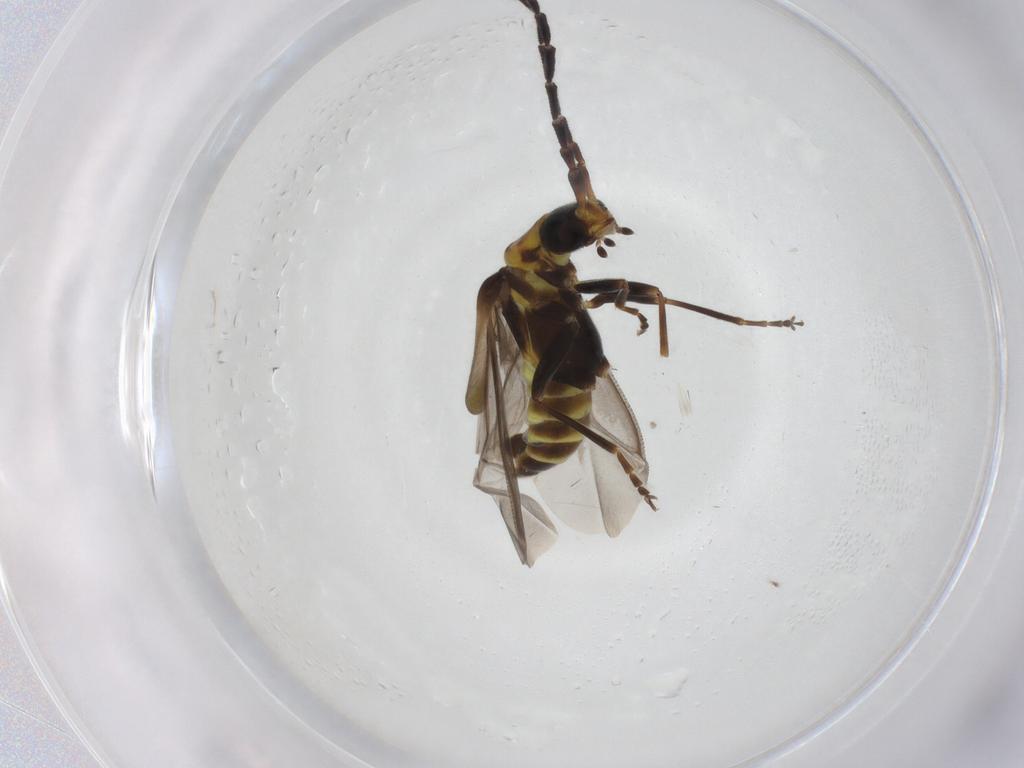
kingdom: Animalia
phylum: Arthropoda
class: Insecta
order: Coleoptera
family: Cantharidae
